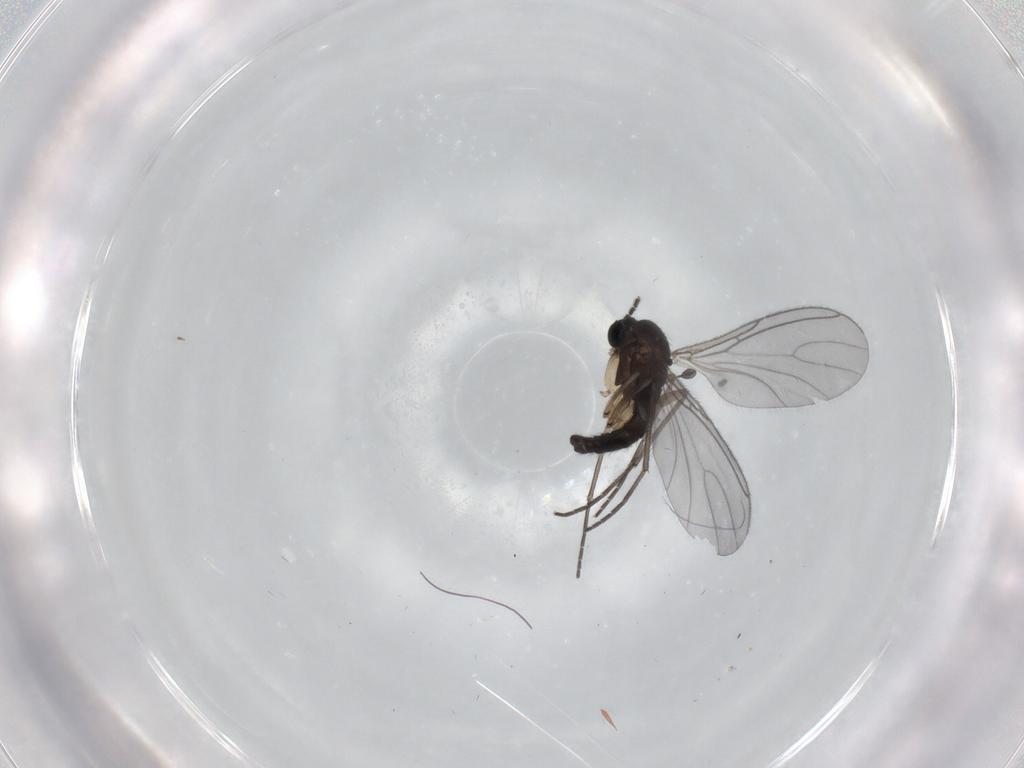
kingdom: Animalia
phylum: Arthropoda
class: Insecta
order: Diptera
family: Sciaridae
